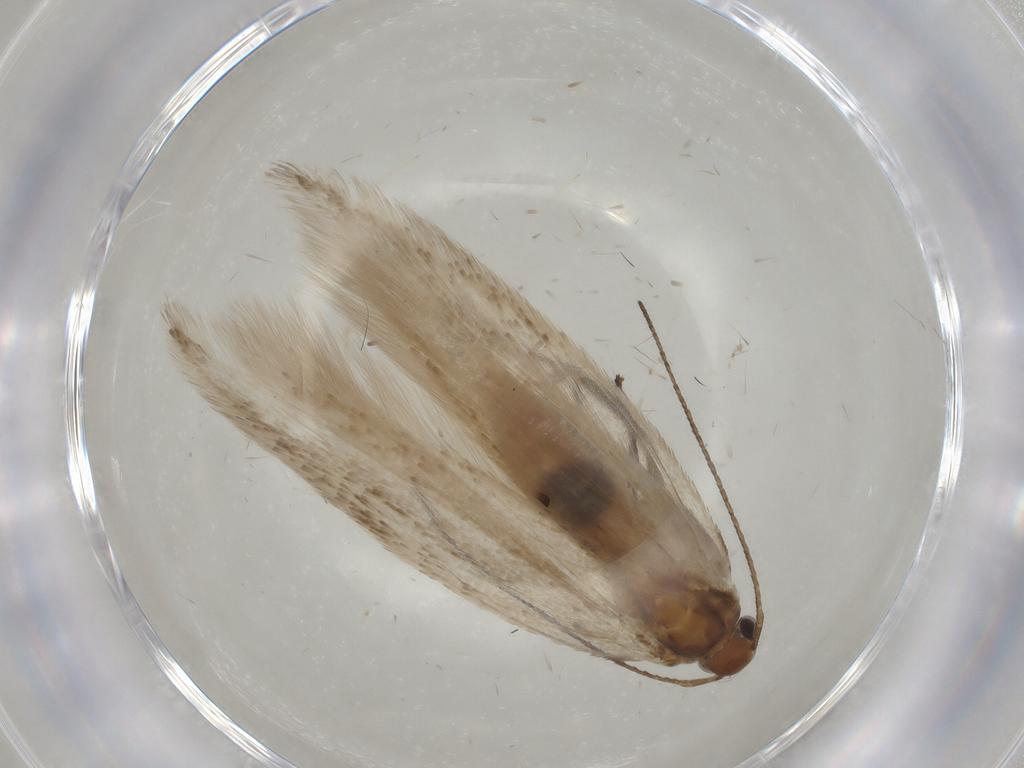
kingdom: Animalia
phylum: Arthropoda
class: Insecta
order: Lepidoptera
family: Gelechiidae
